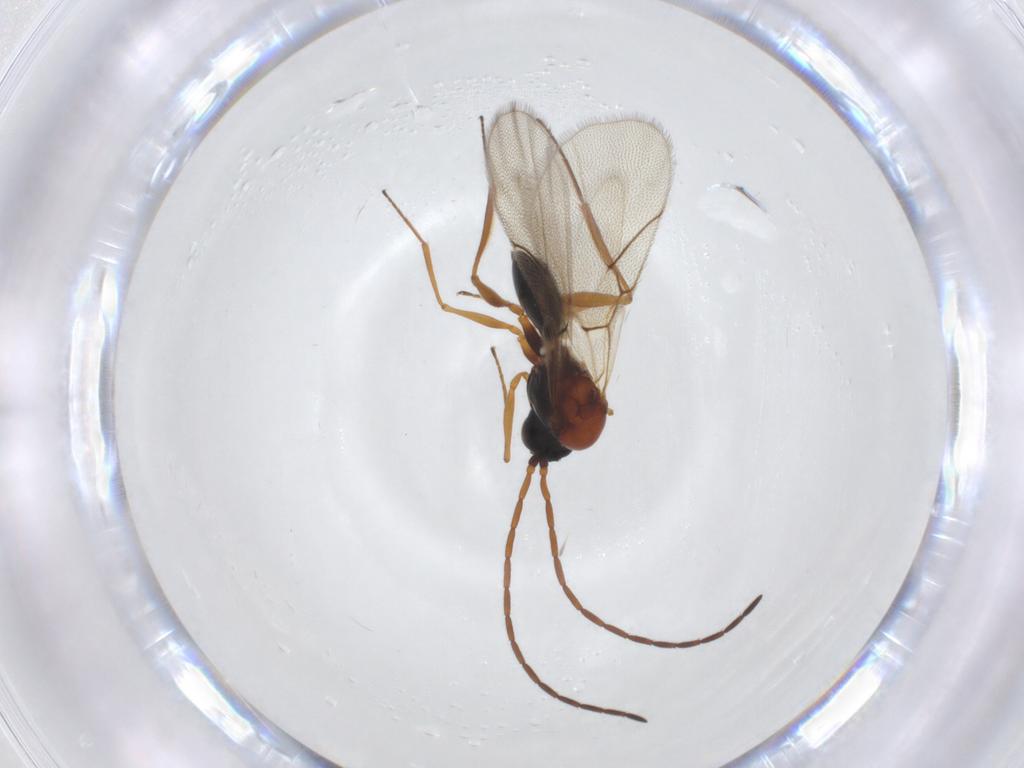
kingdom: Animalia
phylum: Arthropoda
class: Insecta
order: Hymenoptera
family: Figitidae
